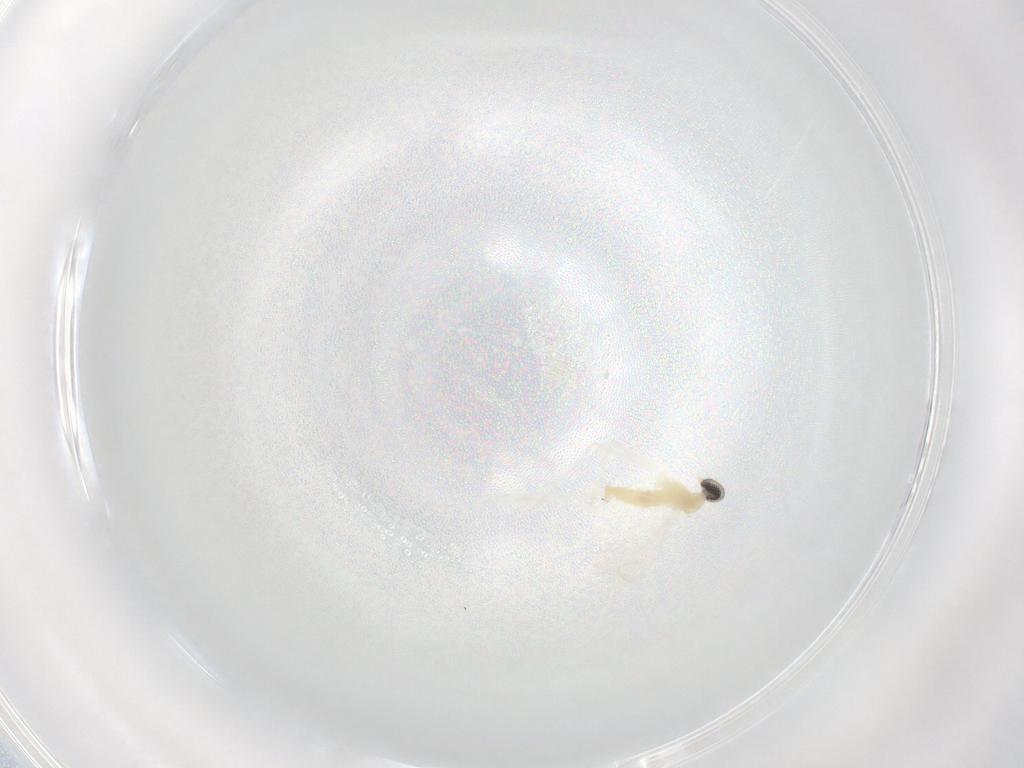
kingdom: Animalia
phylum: Arthropoda
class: Insecta
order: Diptera
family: Cecidomyiidae
